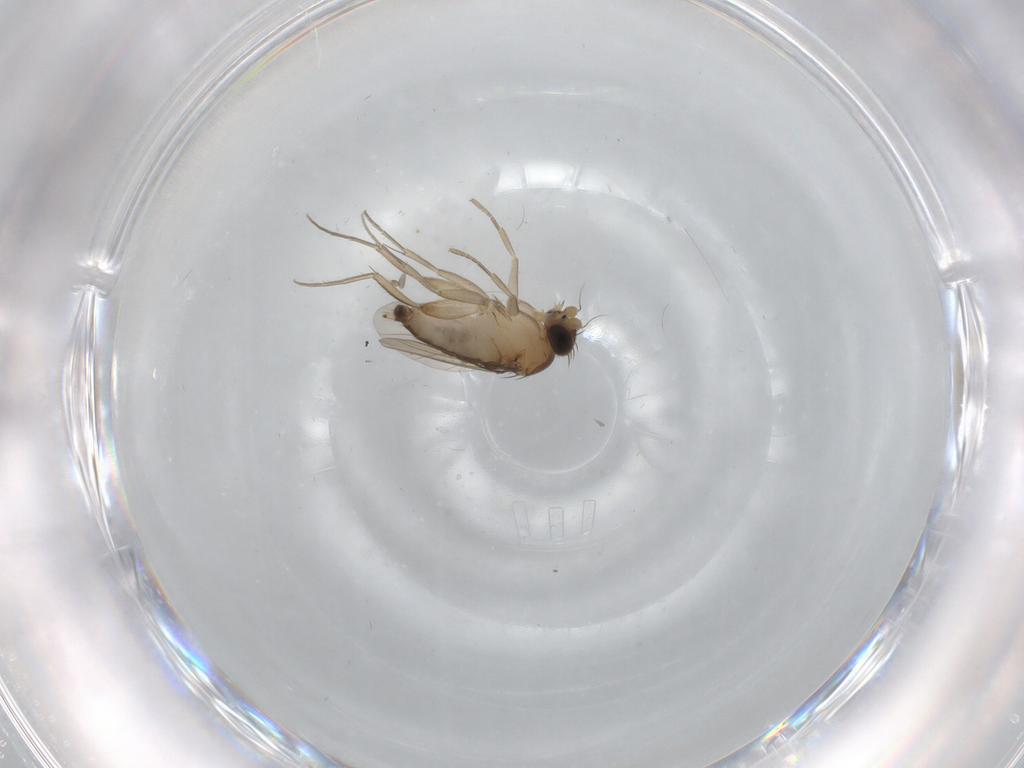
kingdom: Animalia
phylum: Arthropoda
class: Insecta
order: Diptera
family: Phoridae
